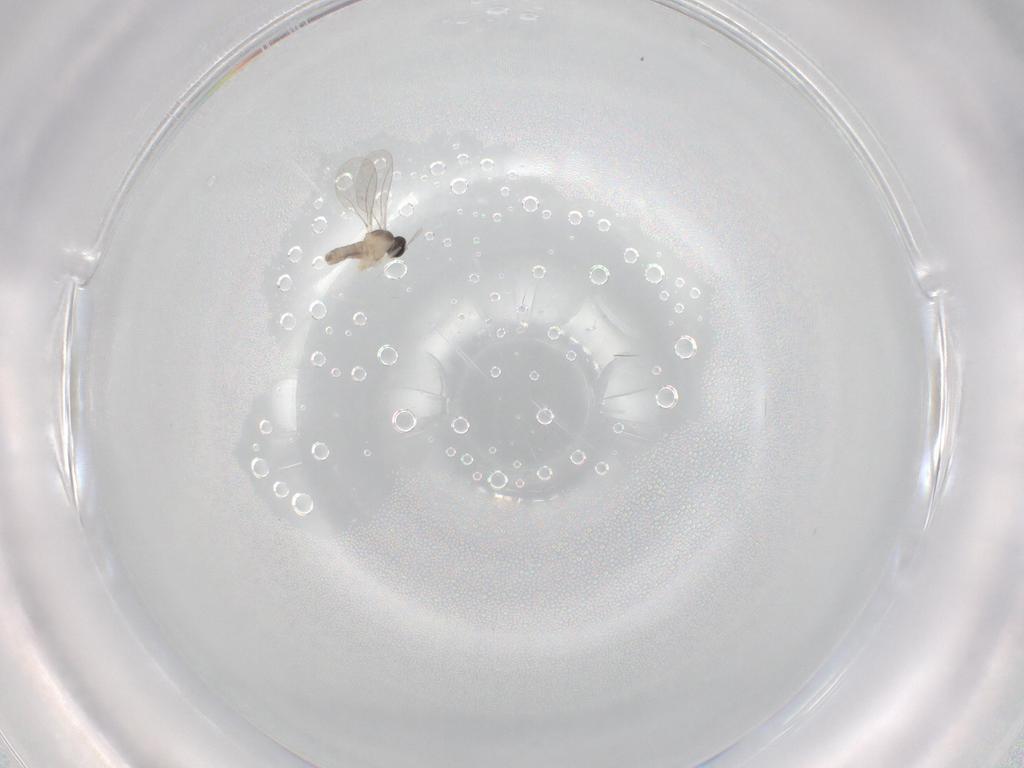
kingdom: Animalia
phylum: Arthropoda
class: Insecta
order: Diptera
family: Cecidomyiidae
